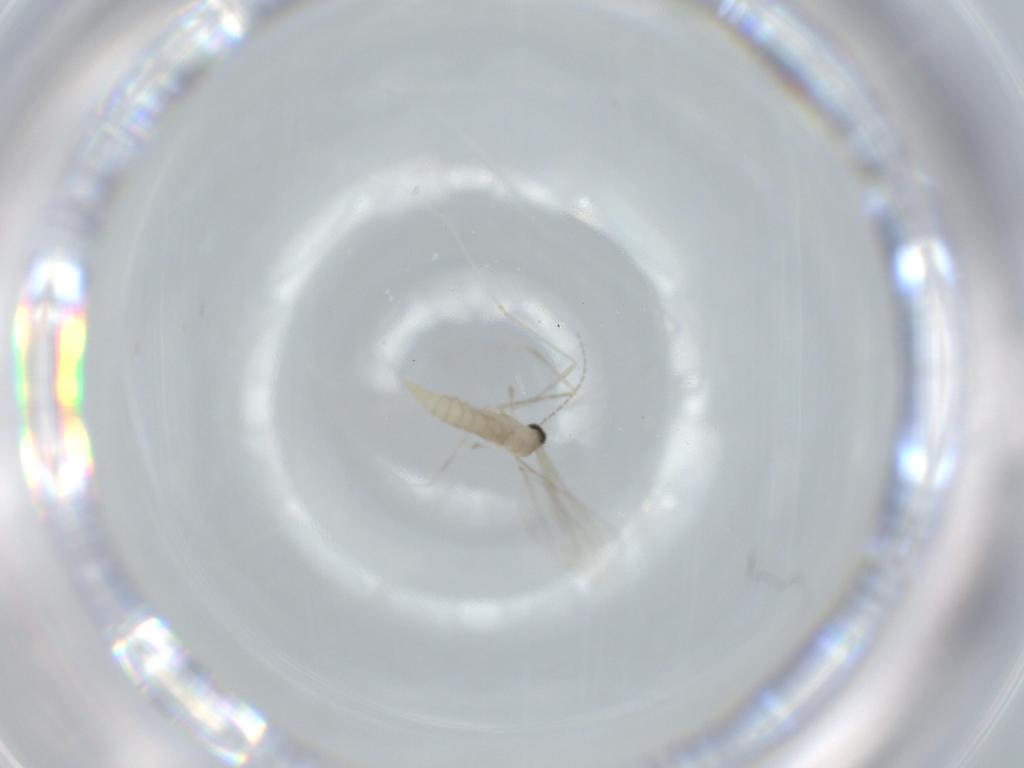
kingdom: Animalia
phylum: Arthropoda
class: Insecta
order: Diptera
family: Cecidomyiidae
